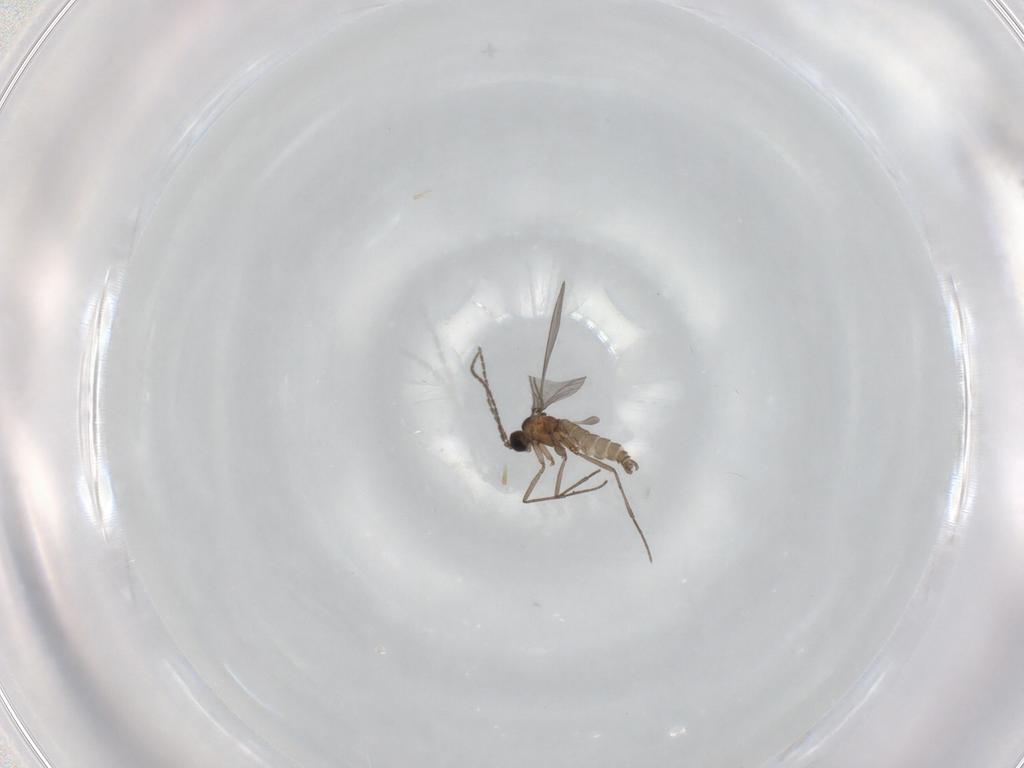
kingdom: Animalia
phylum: Arthropoda
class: Insecta
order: Diptera
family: Sciaridae
